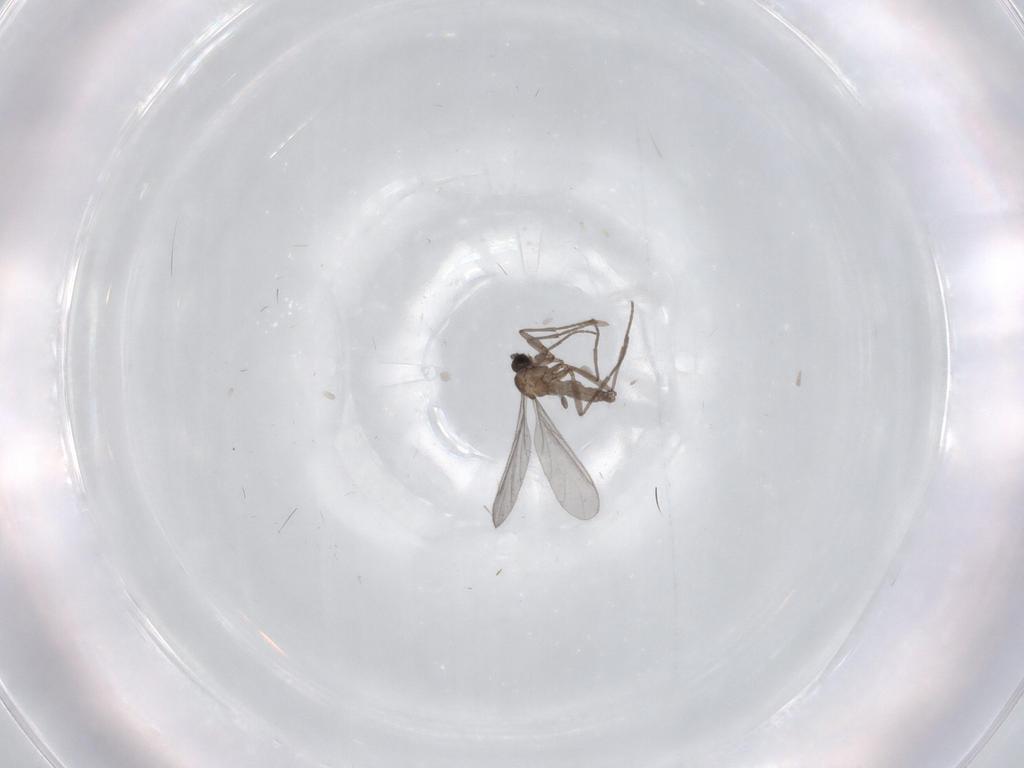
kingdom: Animalia
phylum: Arthropoda
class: Insecta
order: Diptera
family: Sciaridae
